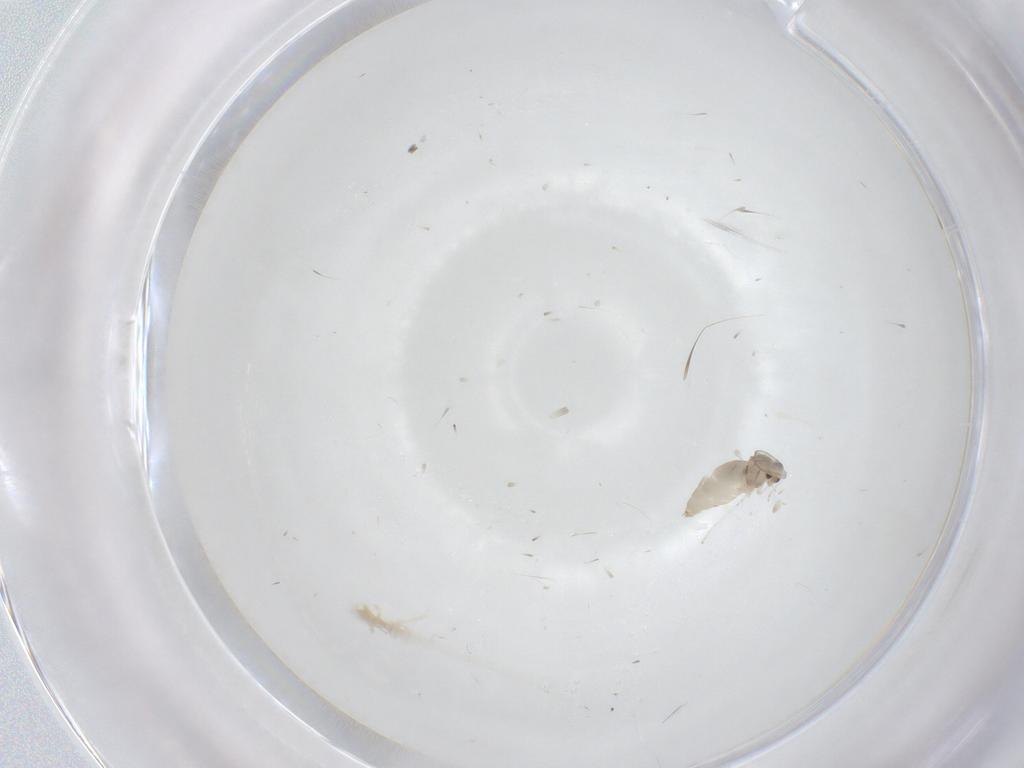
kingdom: Animalia
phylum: Arthropoda
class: Insecta
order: Diptera
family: Cecidomyiidae
